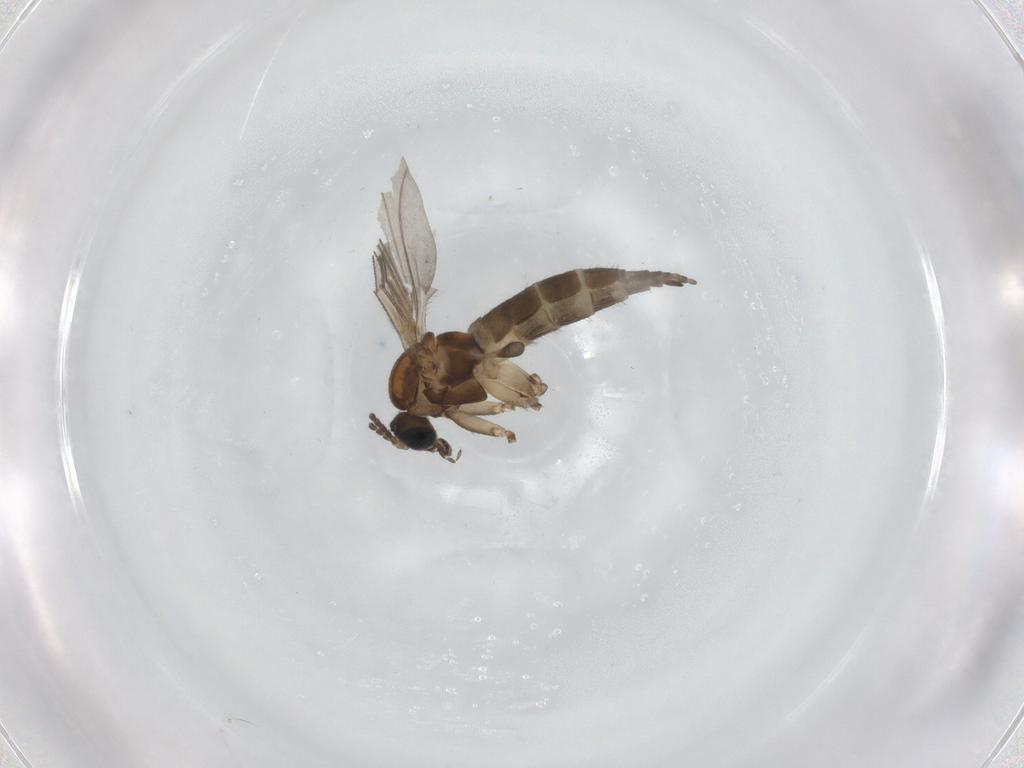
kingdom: Animalia
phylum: Arthropoda
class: Insecta
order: Diptera
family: Sciaridae
